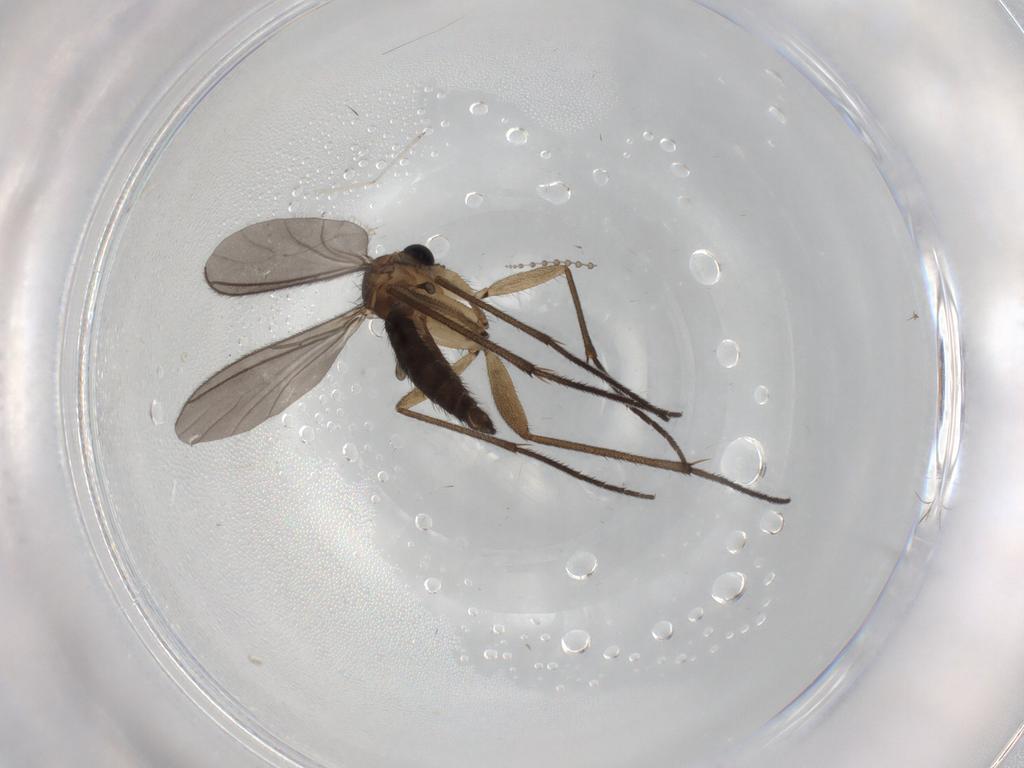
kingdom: Animalia
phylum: Arthropoda
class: Insecta
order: Diptera
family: Psychodidae
